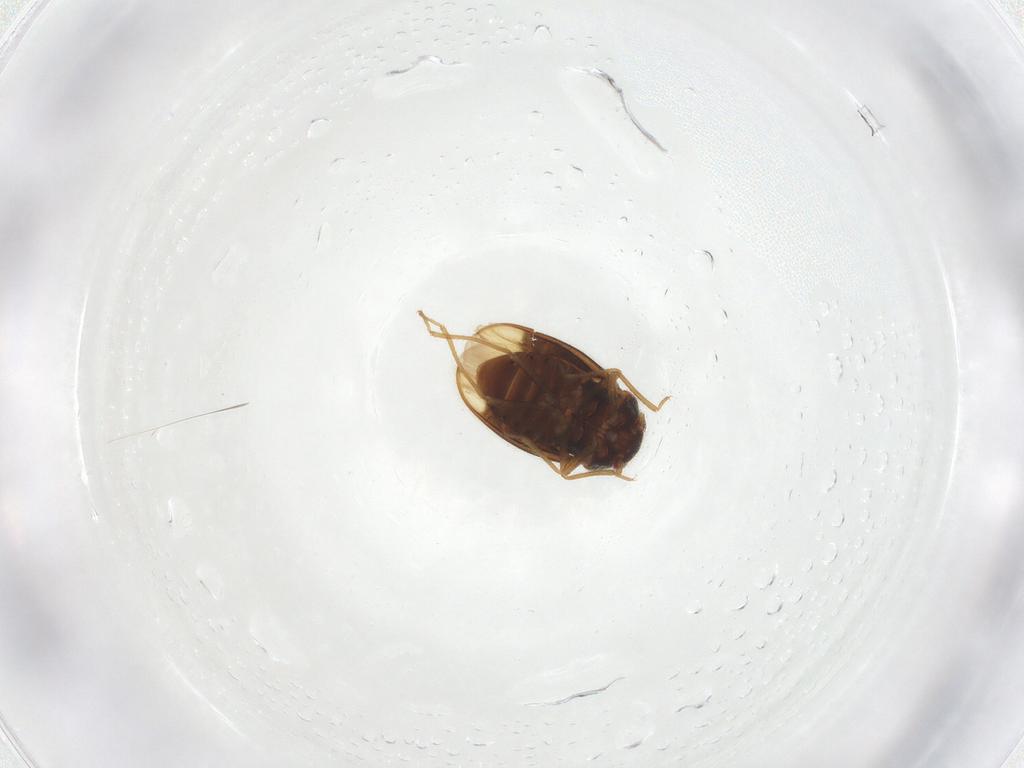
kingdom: Animalia
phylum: Arthropoda
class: Insecta
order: Hemiptera
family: Schizopteridae
